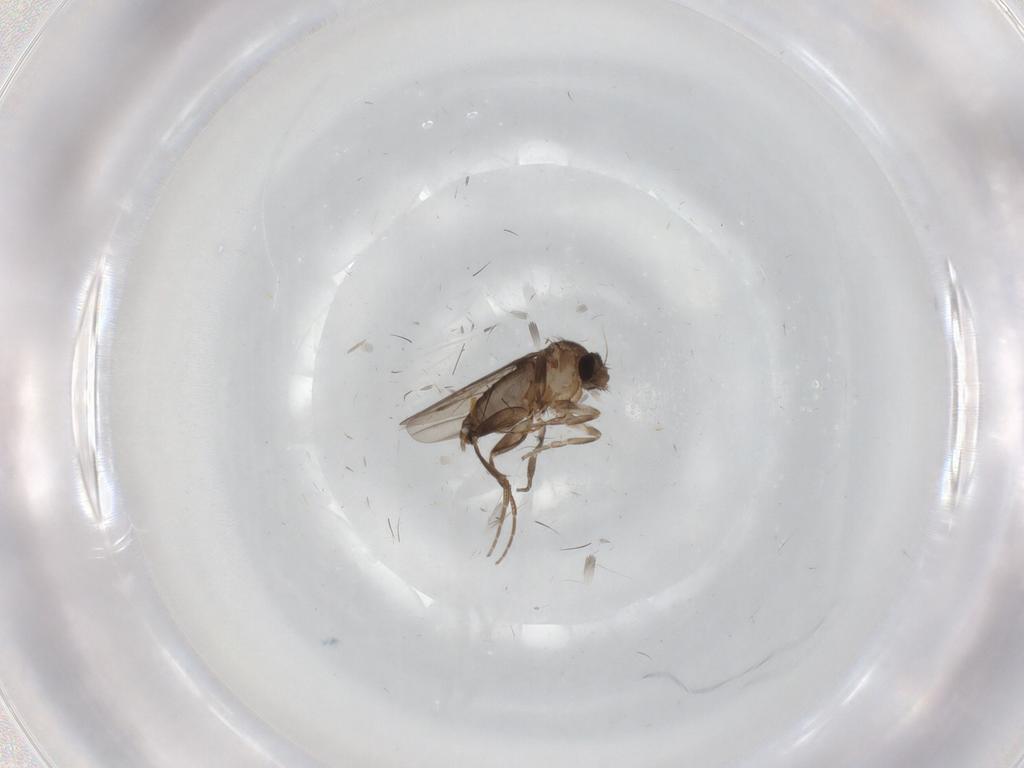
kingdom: Animalia
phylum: Arthropoda
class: Insecta
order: Diptera
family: Phoridae
